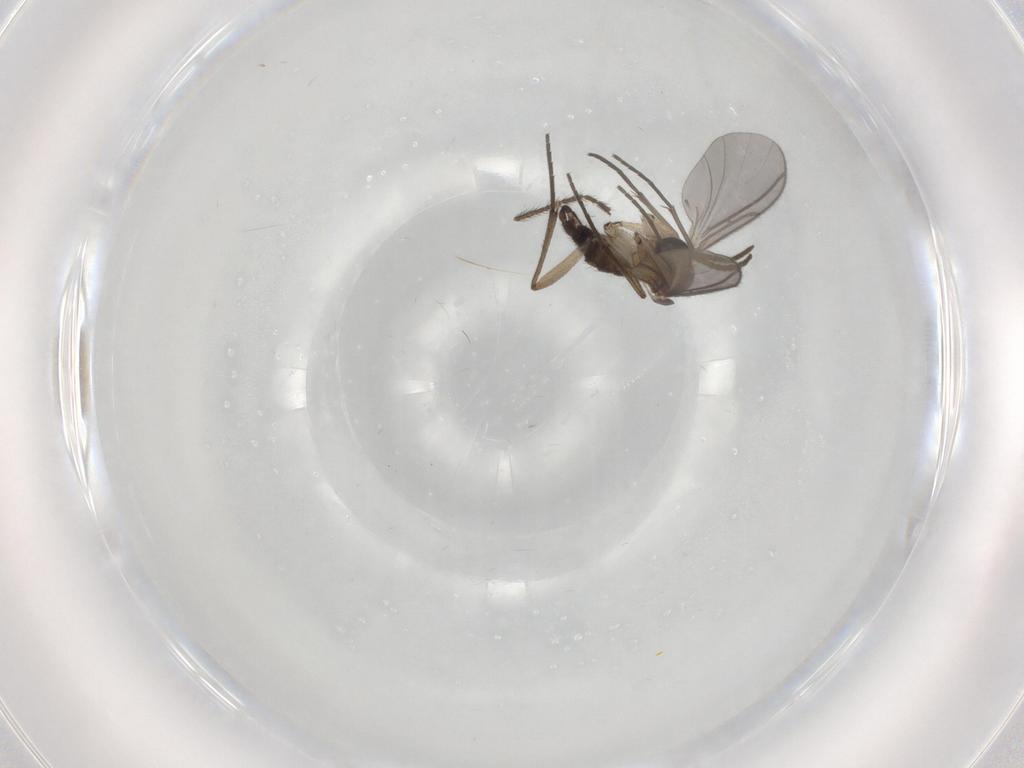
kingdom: Animalia
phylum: Arthropoda
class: Insecta
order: Diptera
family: Limoniidae
